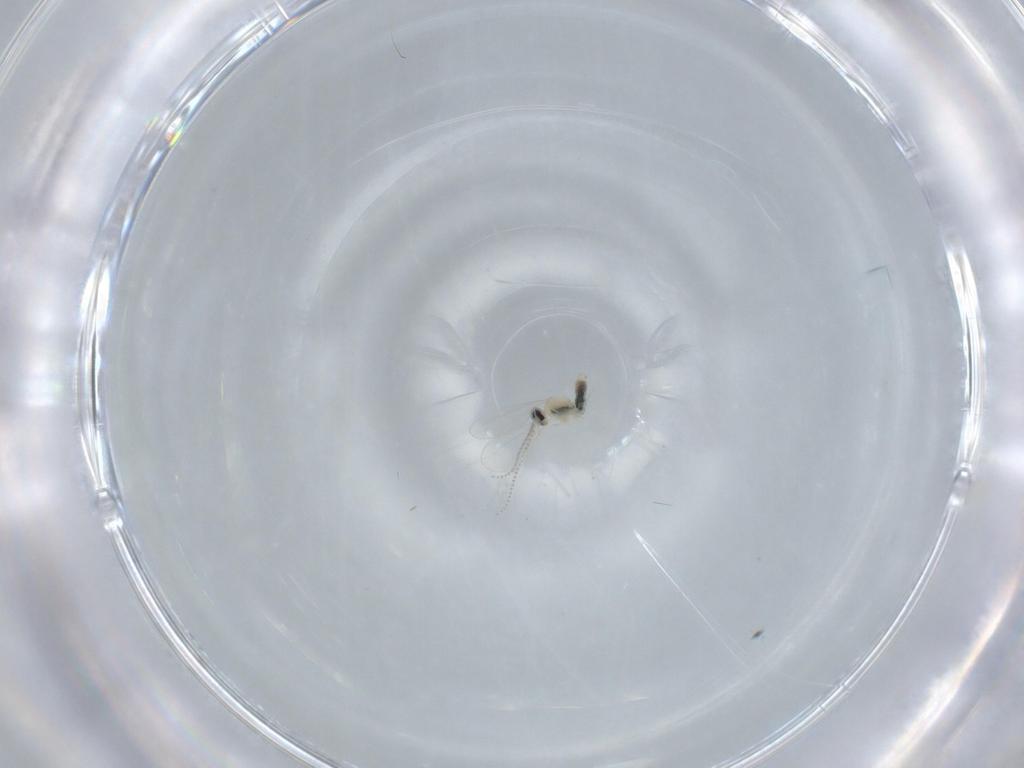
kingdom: Animalia
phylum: Arthropoda
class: Insecta
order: Diptera
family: Cecidomyiidae
